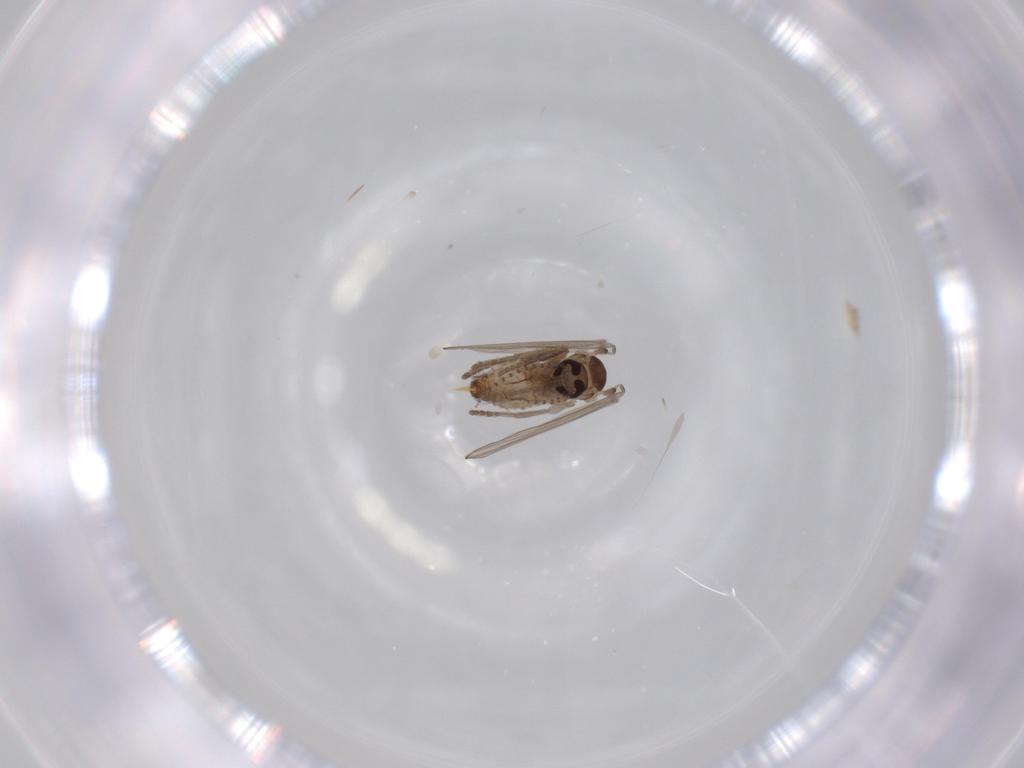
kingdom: Animalia
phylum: Arthropoda
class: Insecta
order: Diptera
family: Psychodidae
